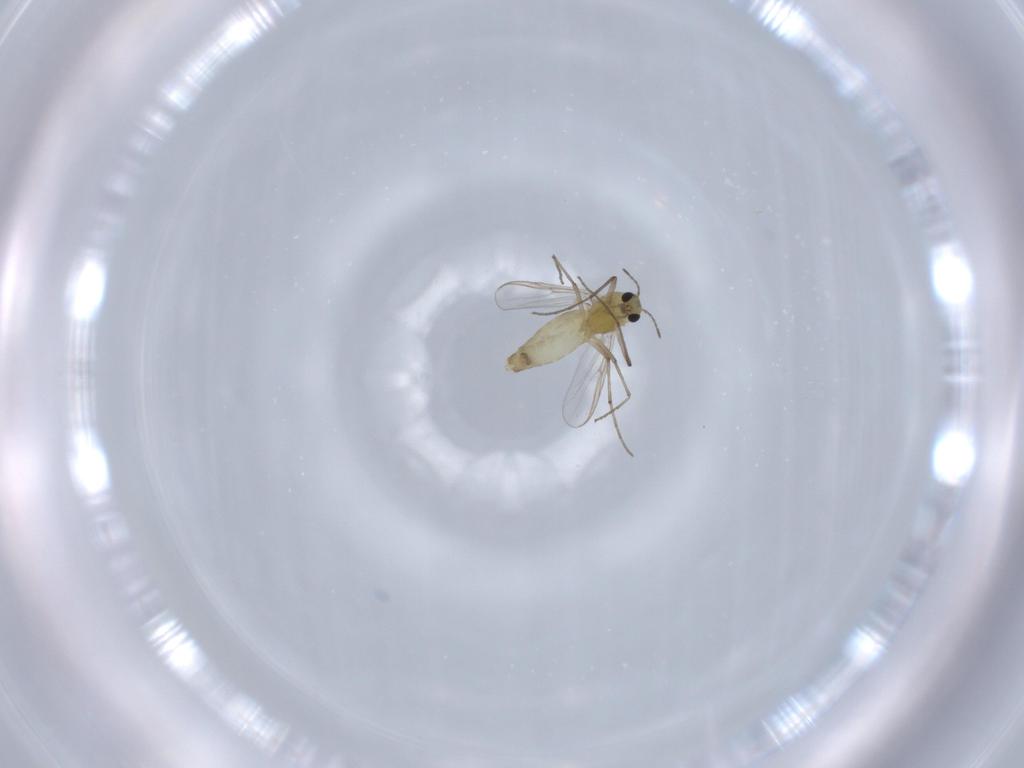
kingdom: Animalia
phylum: Arthropoda
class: Insecta
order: Diptera
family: Chironomidae
